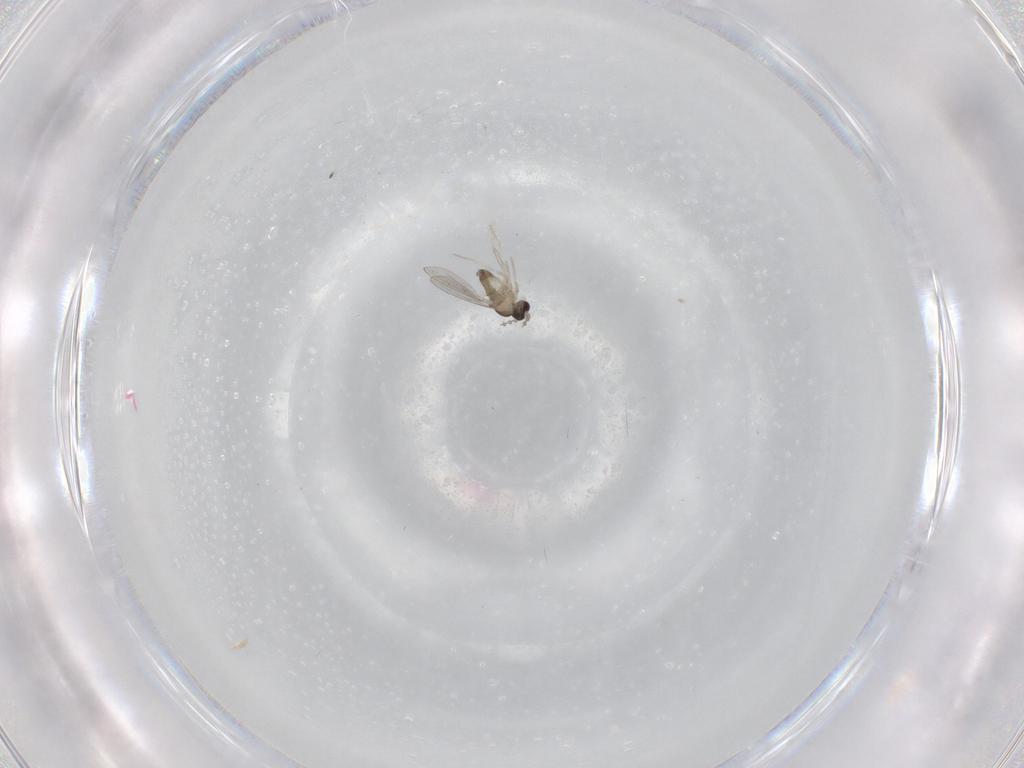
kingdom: Animalia
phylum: Arthropoda
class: Insecta
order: Diptera
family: Cecidomyiidae
